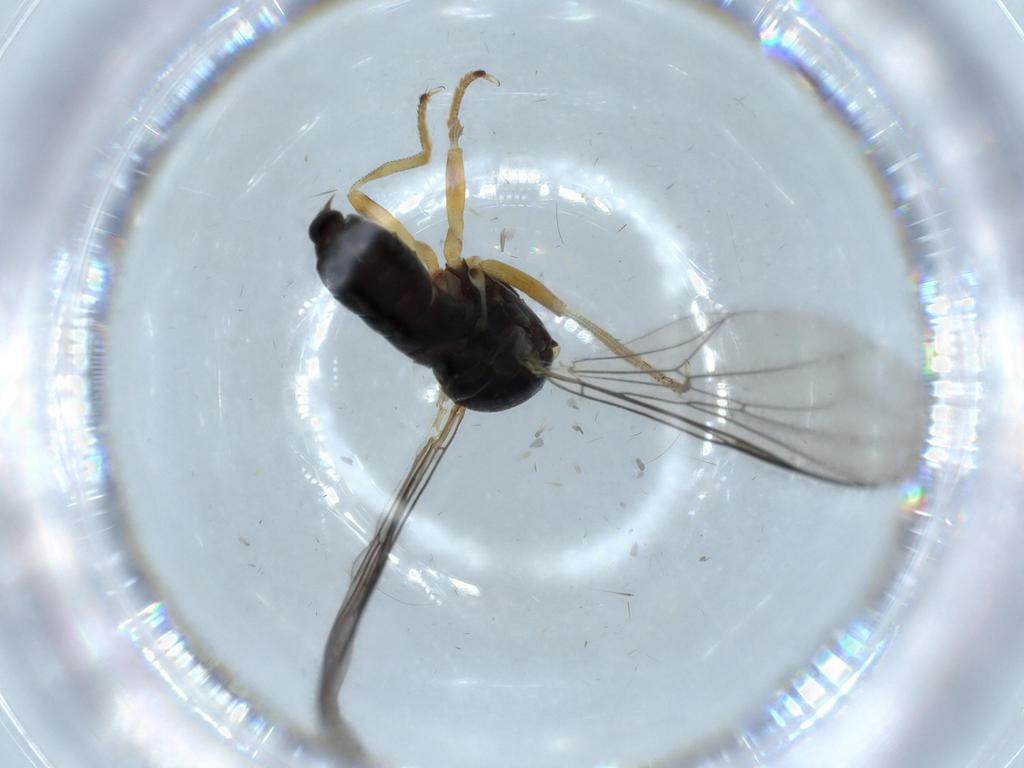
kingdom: Animalia
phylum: Arthropoda
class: Insecta
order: Diptera
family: Pipunculidae
